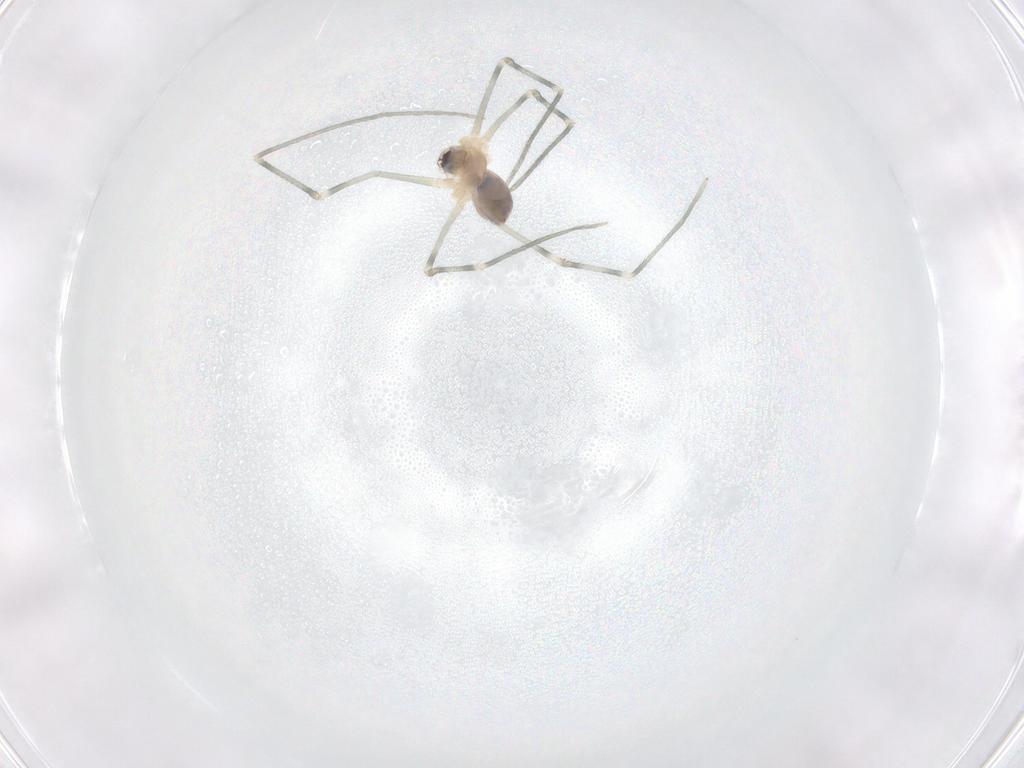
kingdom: Animalia
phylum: Arthropoda
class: Arachnida
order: Araneae
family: Pholcidae
